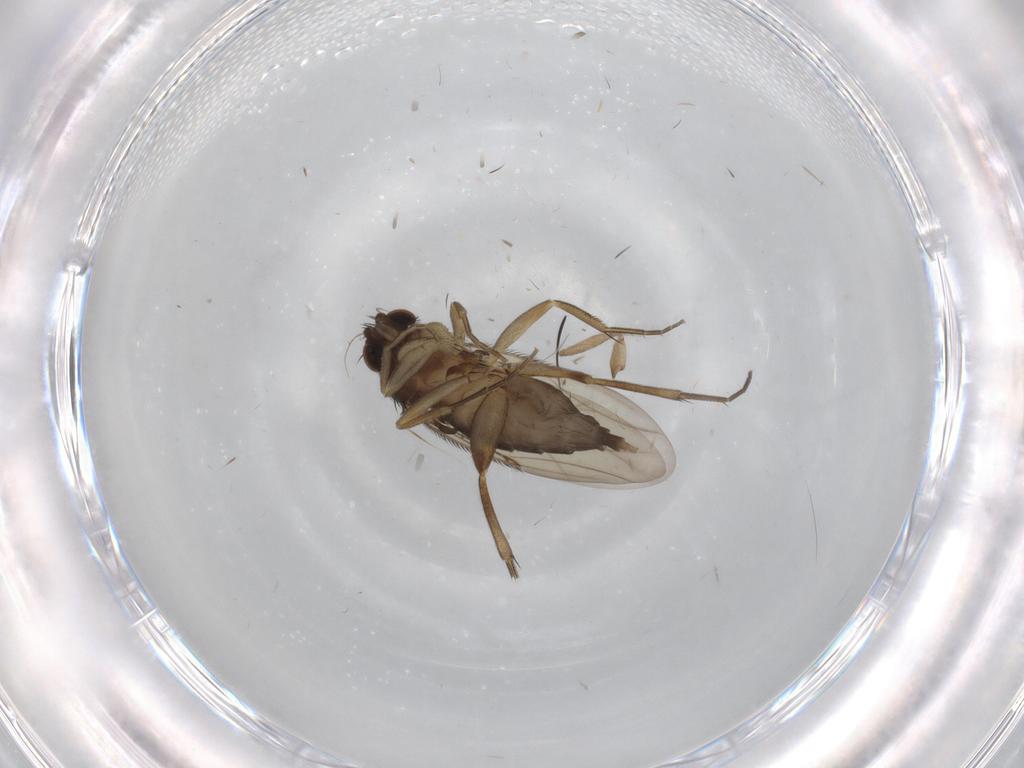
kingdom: Animalia
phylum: Arthropoda
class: Insecta
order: Diptera
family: Phoridae
